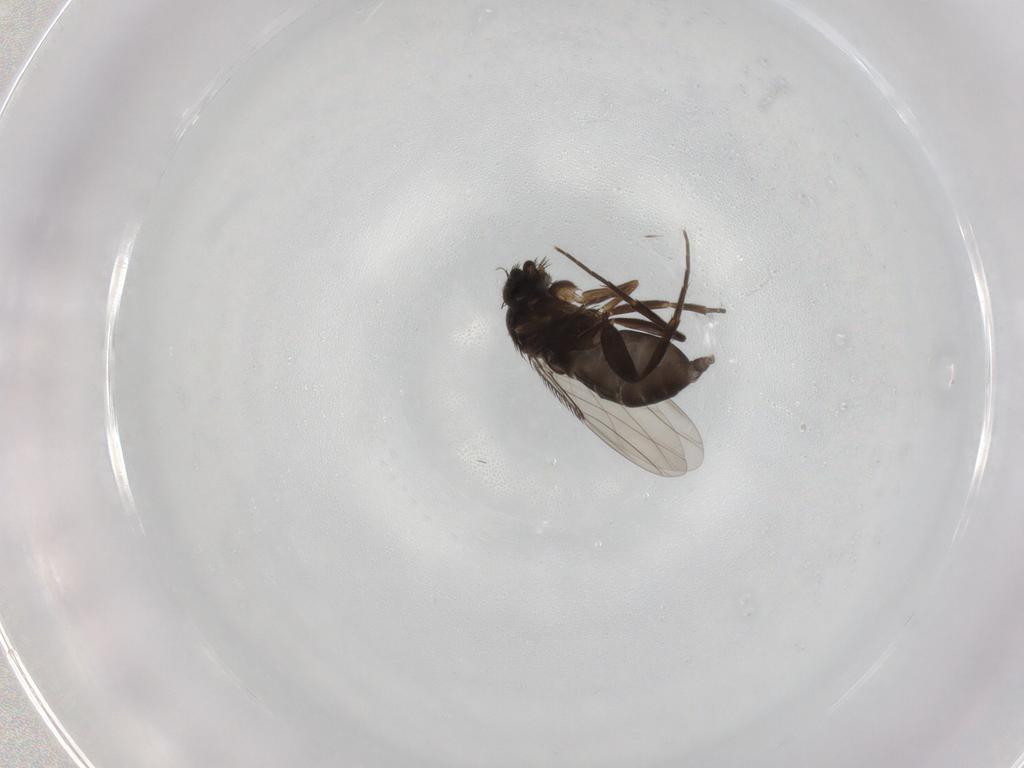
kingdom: Animalia
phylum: Arthropoda
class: Insecta
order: Diptera
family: Phoridae
